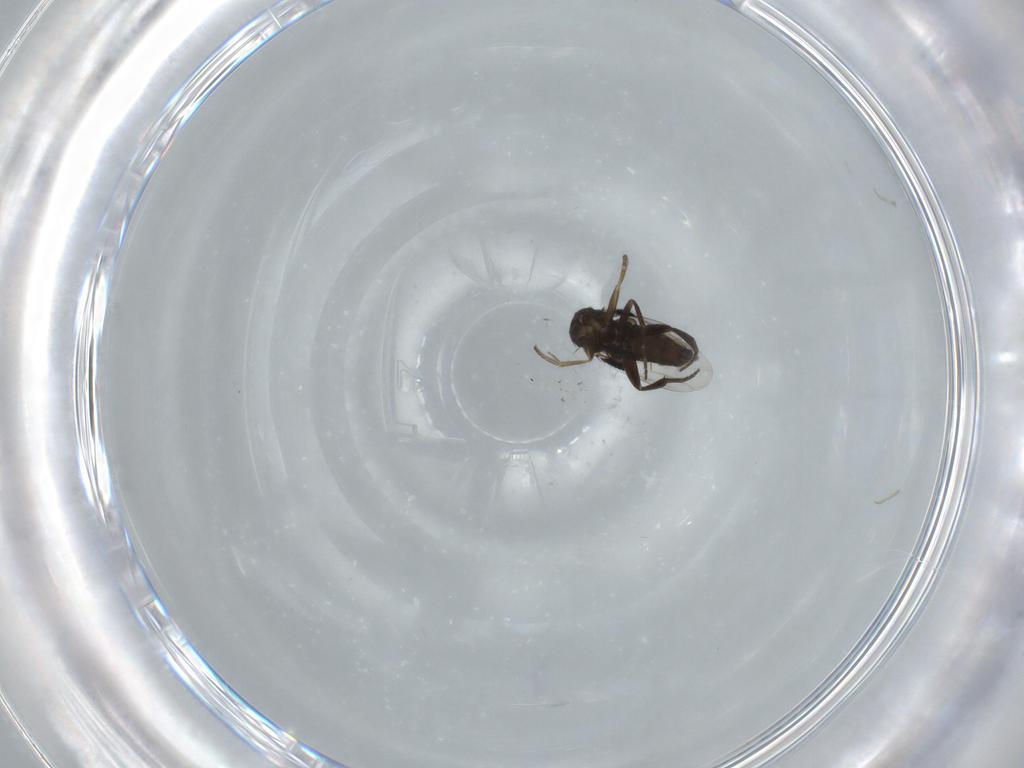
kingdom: Animalia
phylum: Arthropoda
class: Insecta
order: Diptera
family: Phoridae
